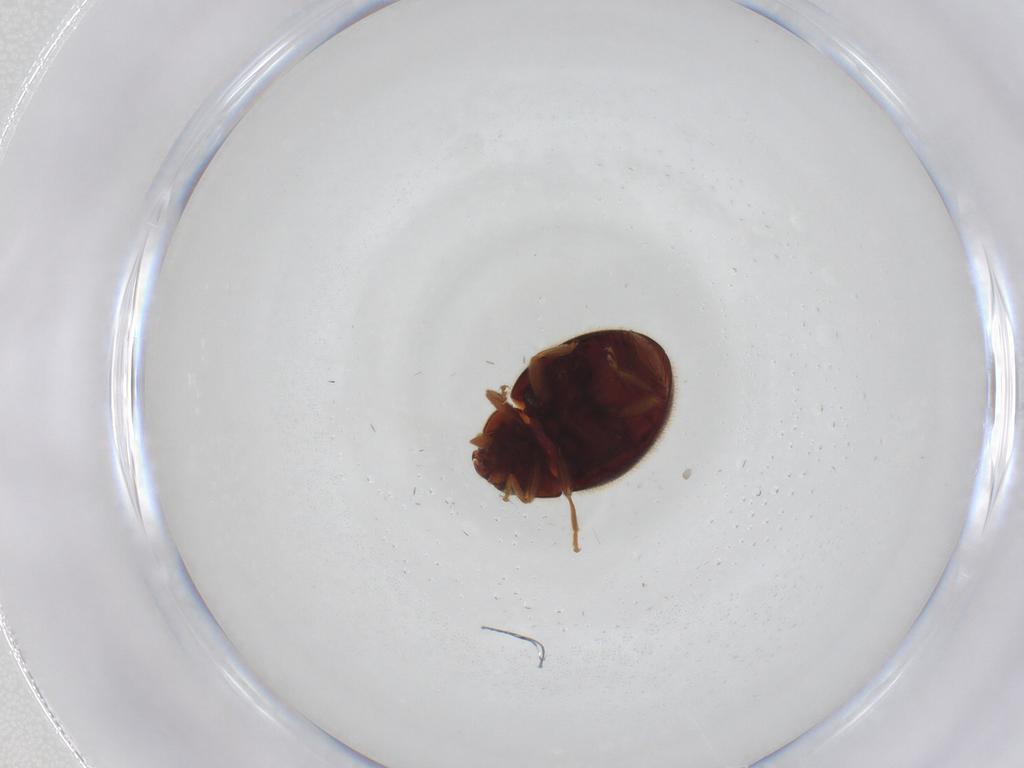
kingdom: Animalia
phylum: Arthropoda
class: Insecta
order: Coleoptera
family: Coccinellidae
